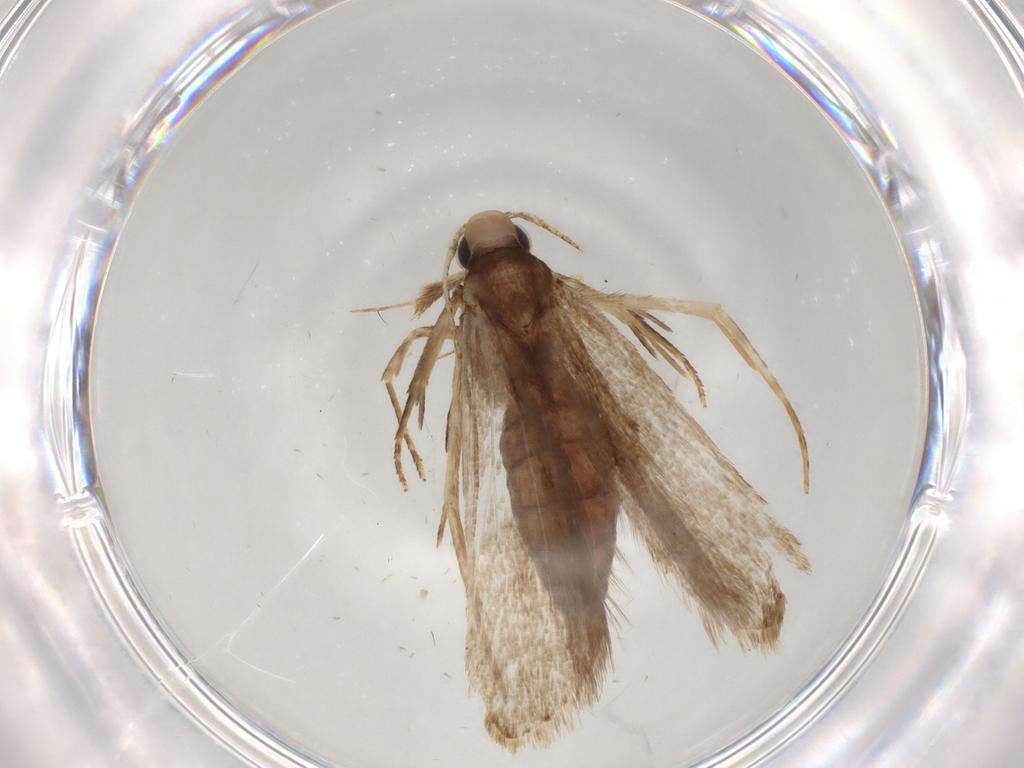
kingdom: Animalia
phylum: Arthropoda
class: Insecta
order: Lepidoptera
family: Gelechiidae
